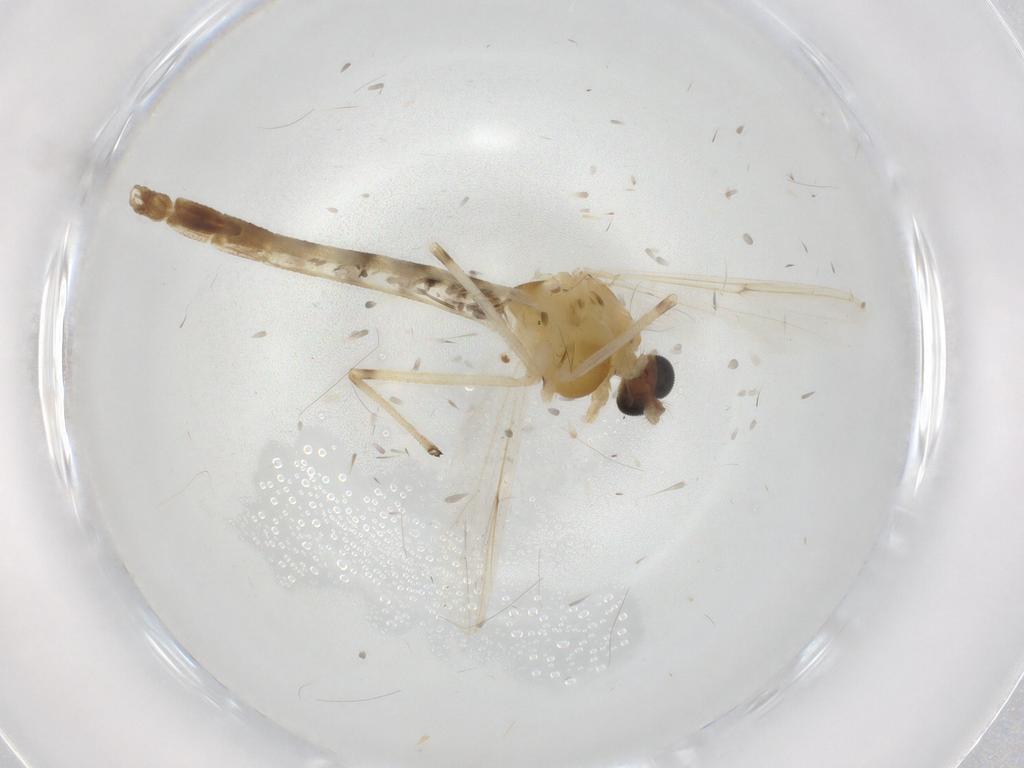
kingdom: Animalia
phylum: Arthropoda
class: Insecta
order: Diptera
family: Chironomidae
